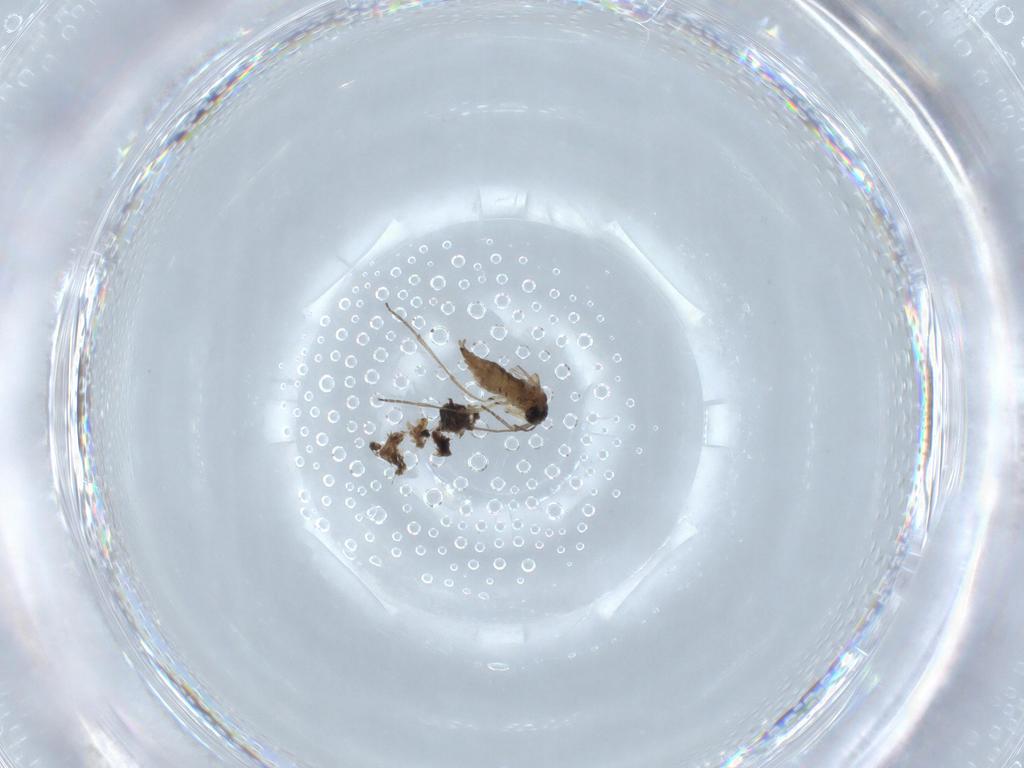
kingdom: Animalia
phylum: Arthropoda
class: Insecta
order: Diptera
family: Sciaridae
